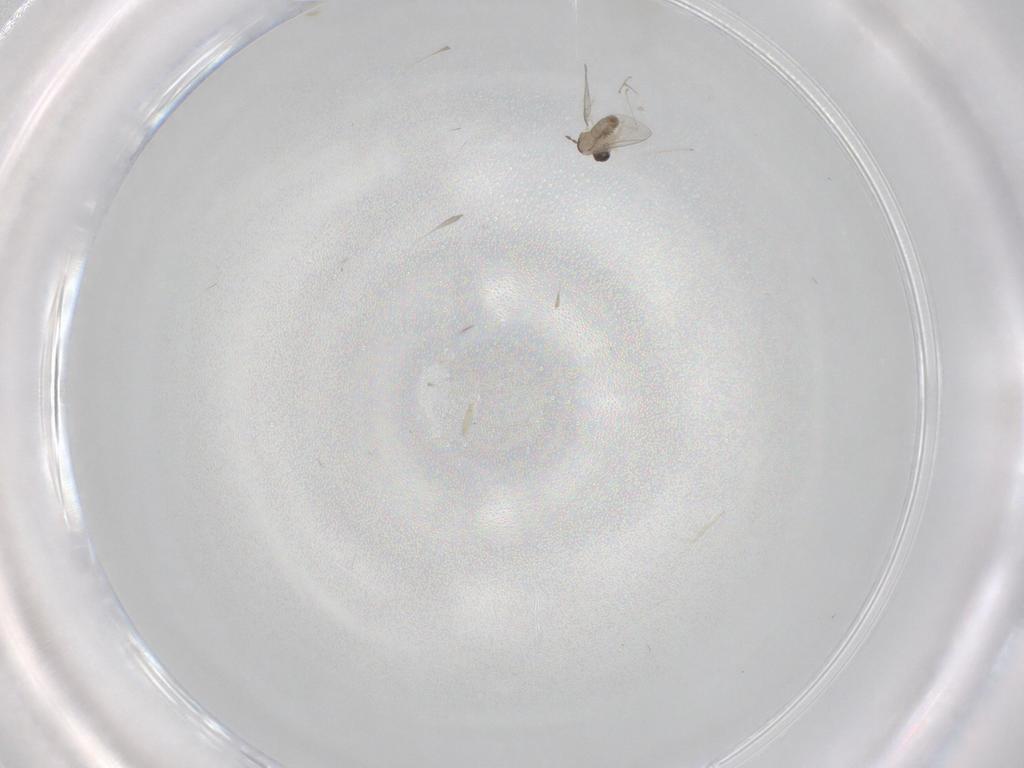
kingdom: Animalia
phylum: Arthropoda
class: Insecta
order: Diptera
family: Cecidomyiidae
